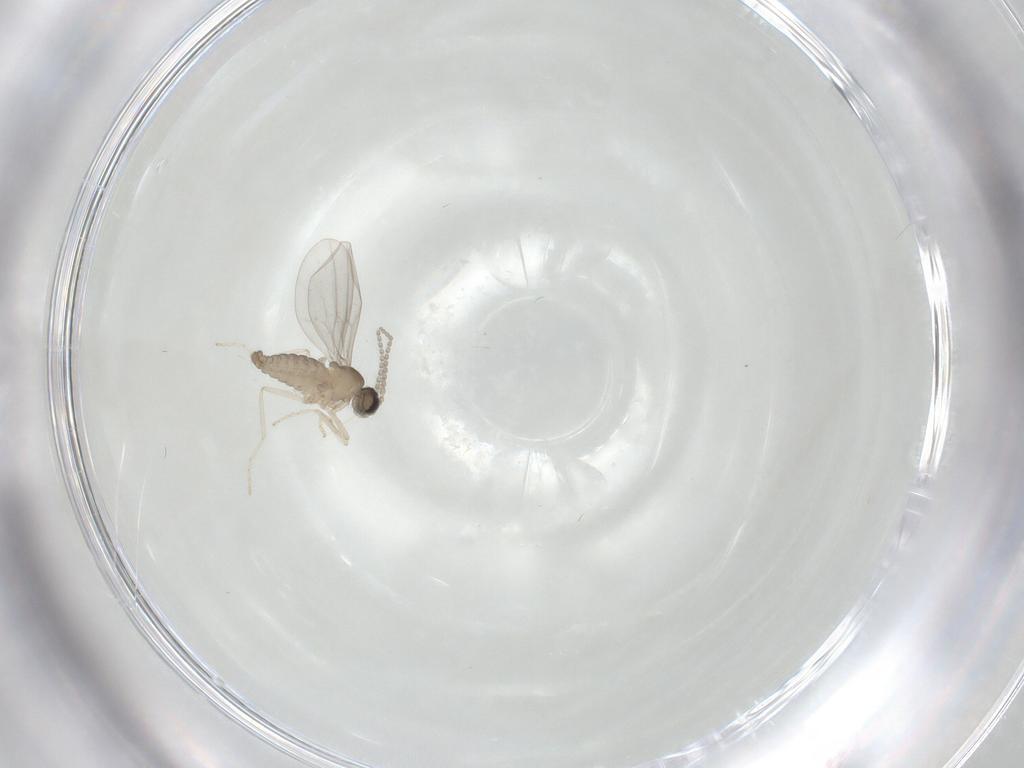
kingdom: Animalia
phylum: Arthropoda
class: Insecta
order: Diptera
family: Cecidomyiidae
